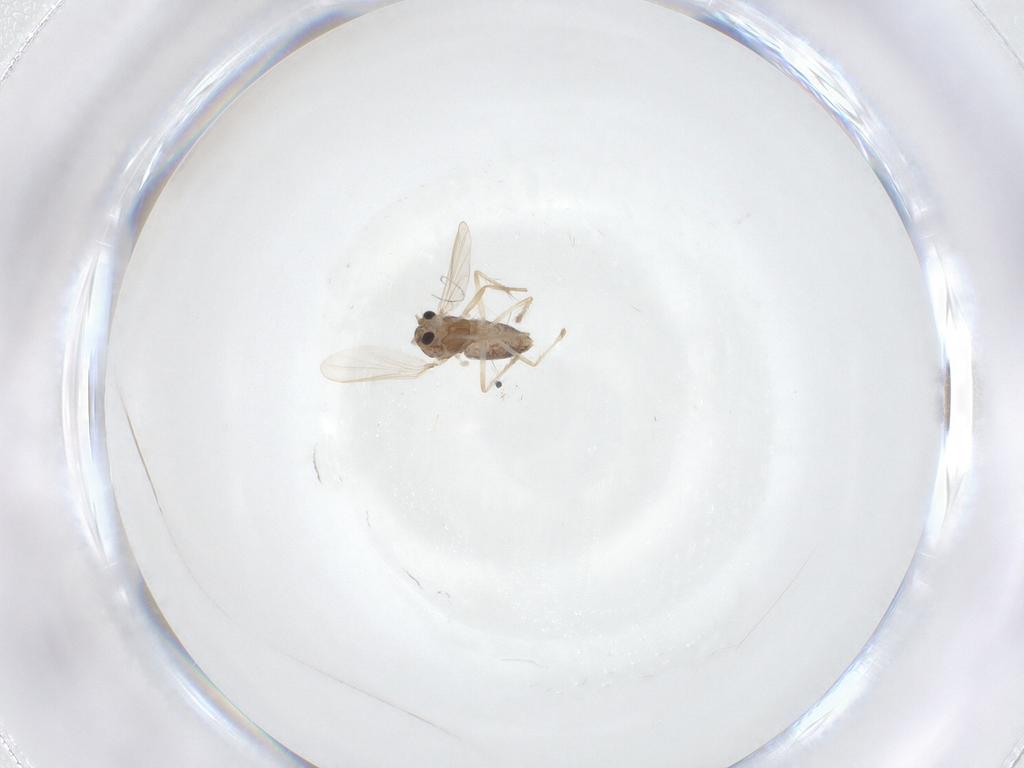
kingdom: Animalia
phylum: Arthropoda
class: Insecta
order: Diptera
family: Chironomidae
